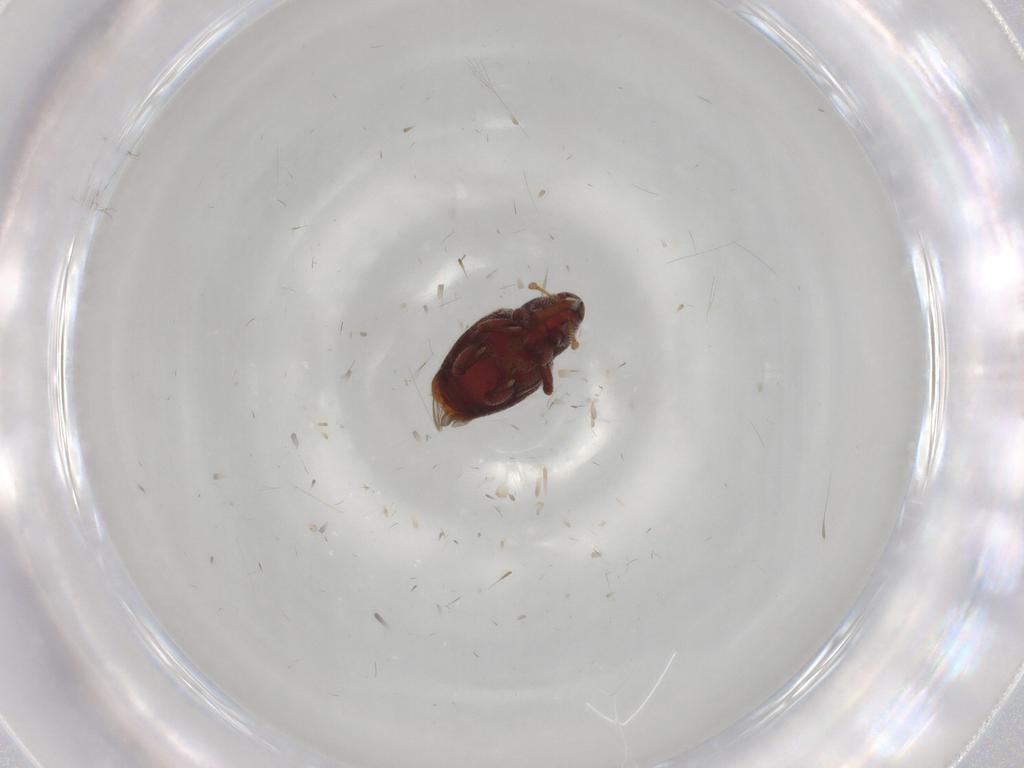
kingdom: Animalia
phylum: Arthropoda
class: Insecta
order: Coleoptera
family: Curculionidae
